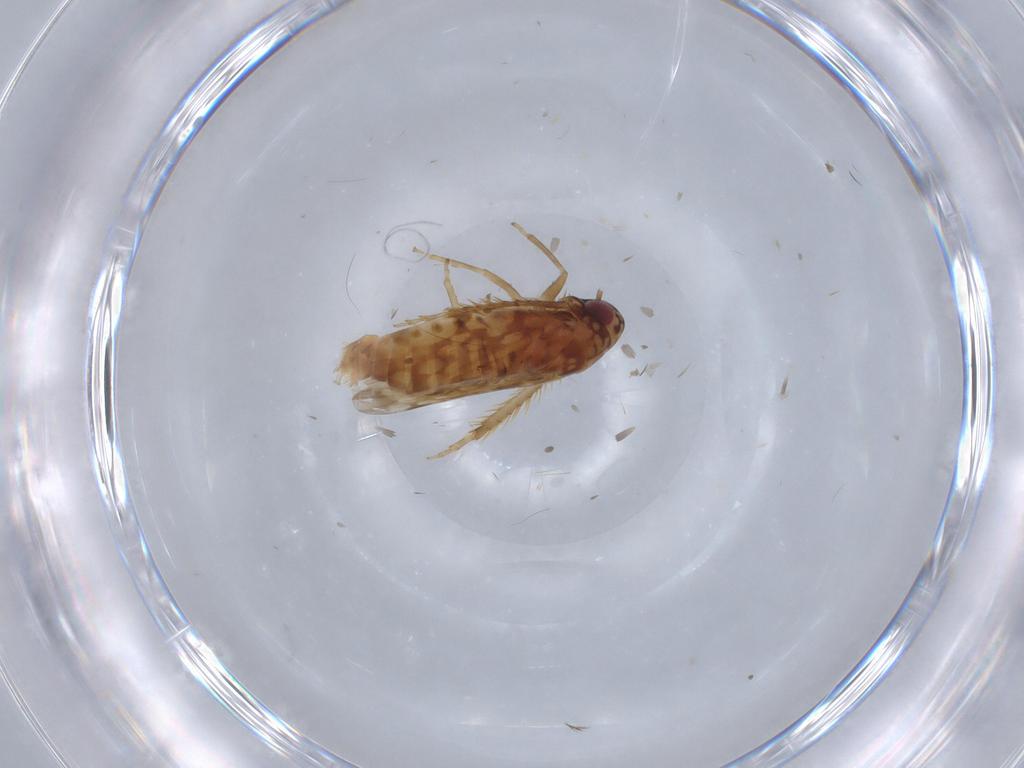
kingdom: Animalia
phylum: Arthropoda
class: Insecta
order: Hemiptera
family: Cicadellidae
